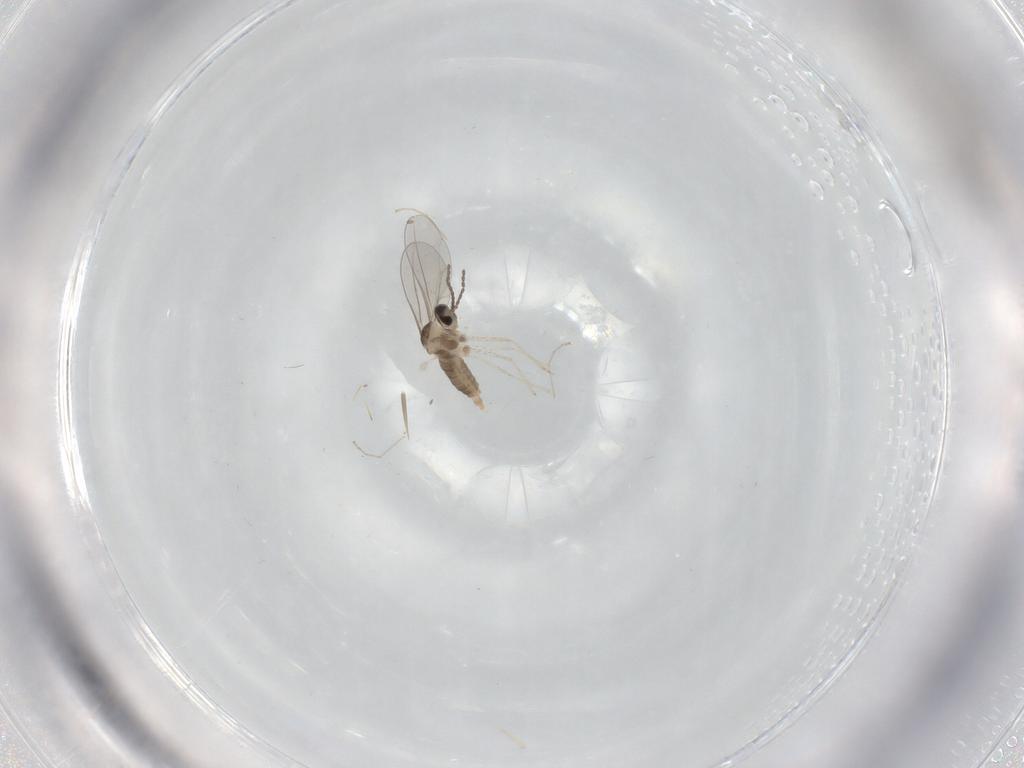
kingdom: Animalia
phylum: Arthropoda
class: Insecta
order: Diptera
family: Cecidomyiidae
